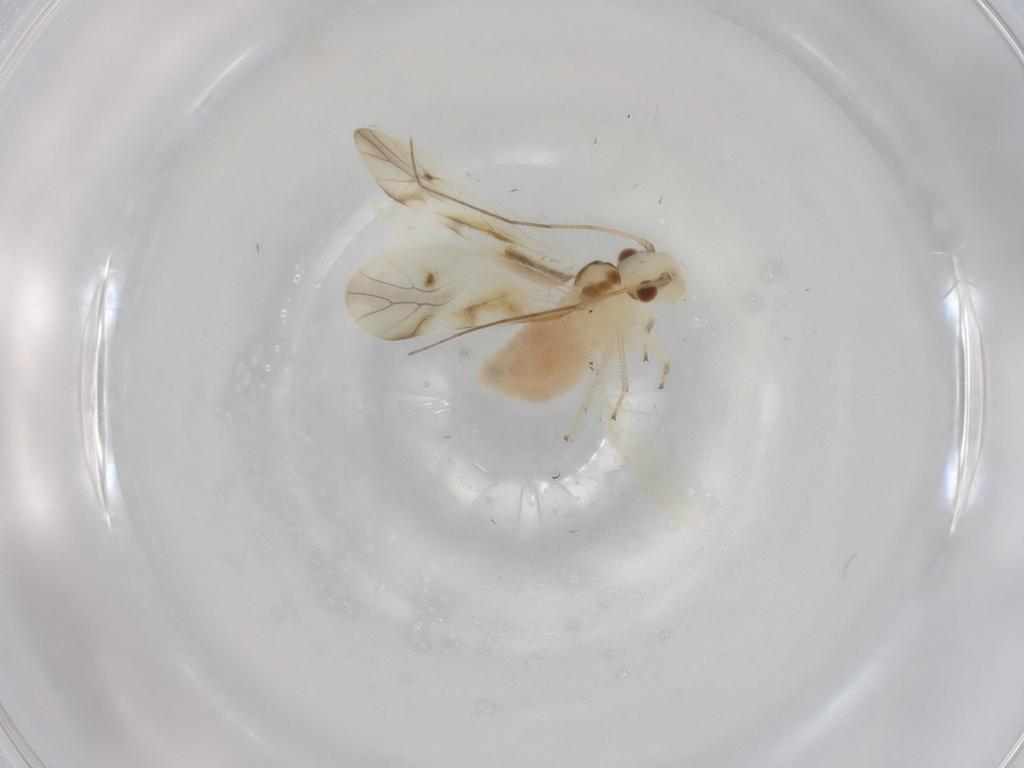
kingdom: Animalia
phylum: Arthropoda
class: Insecta
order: Psocodea
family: Caeciliusidae
